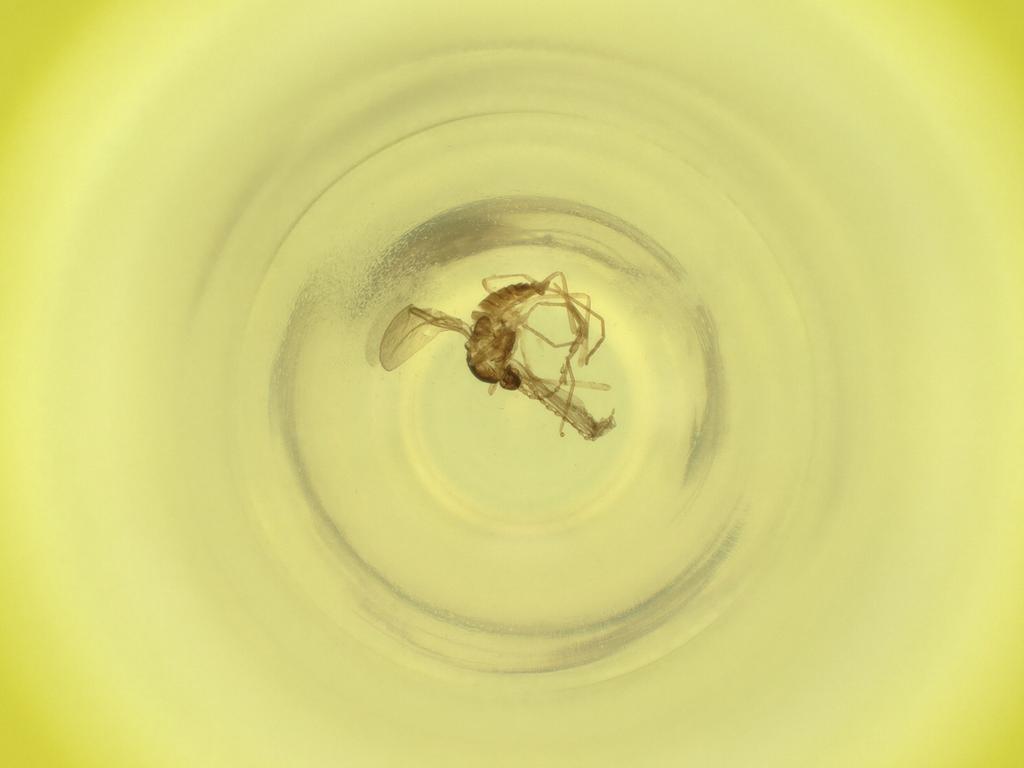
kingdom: Animalia
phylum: Arthropoda
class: Insecta
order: Diptera
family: Cecidomyiidae
